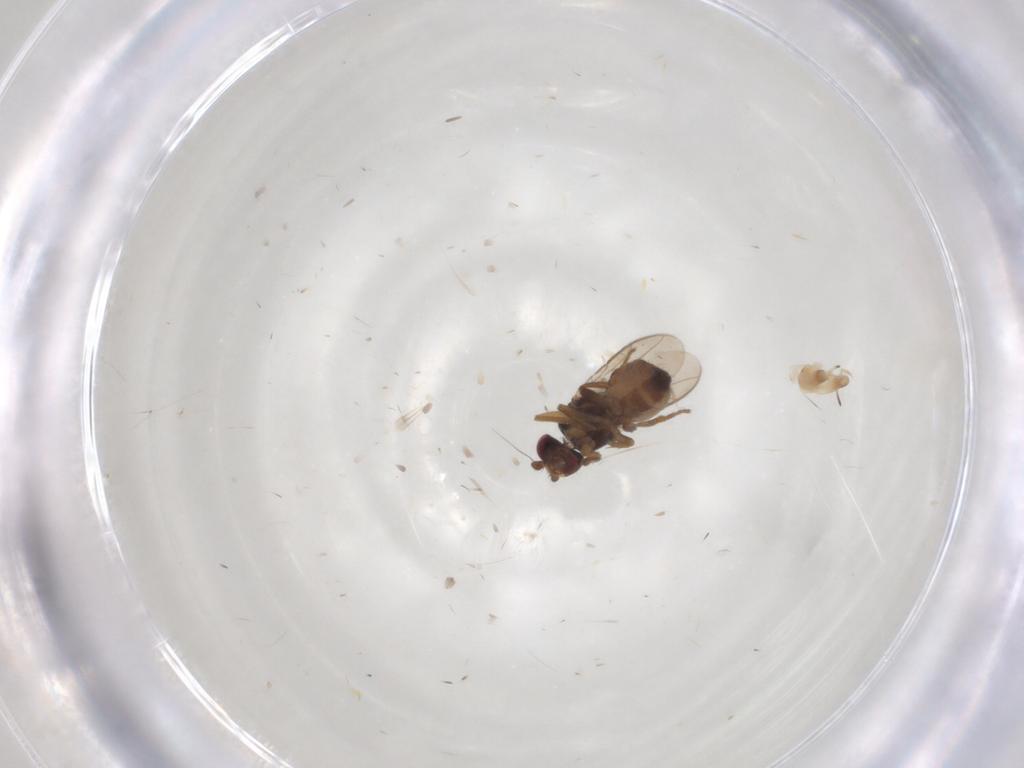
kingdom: Animalia
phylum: Arthropoda
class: Insecta
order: Diptera
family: Sphaeroceridae
